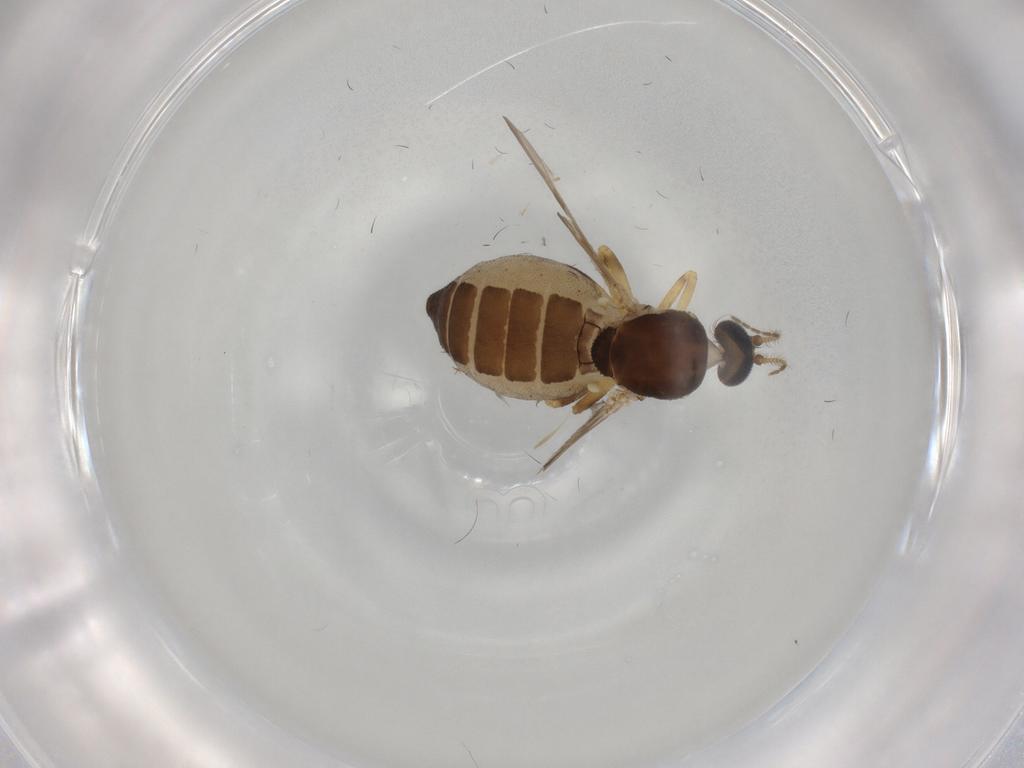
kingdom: Animalia
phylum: Arthropoda
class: Insecta
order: Diptera
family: Ceratopogonidae
